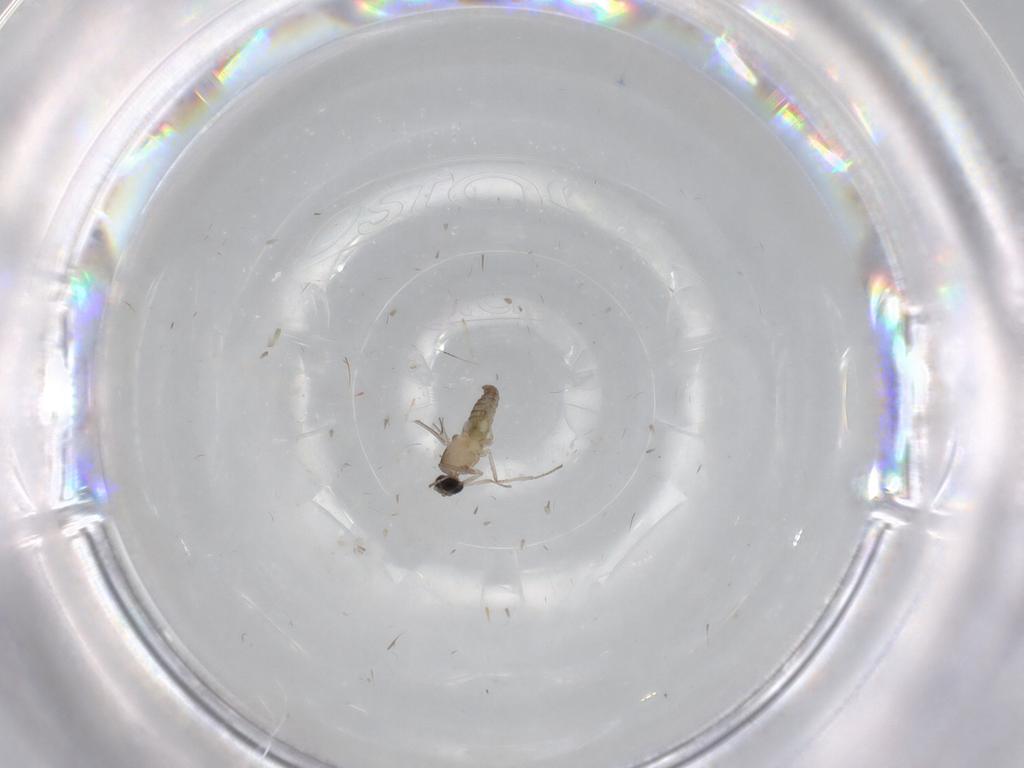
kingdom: Animalia
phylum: Arthropoda
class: Insecta
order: Diptera
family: Cecidomyiidae
